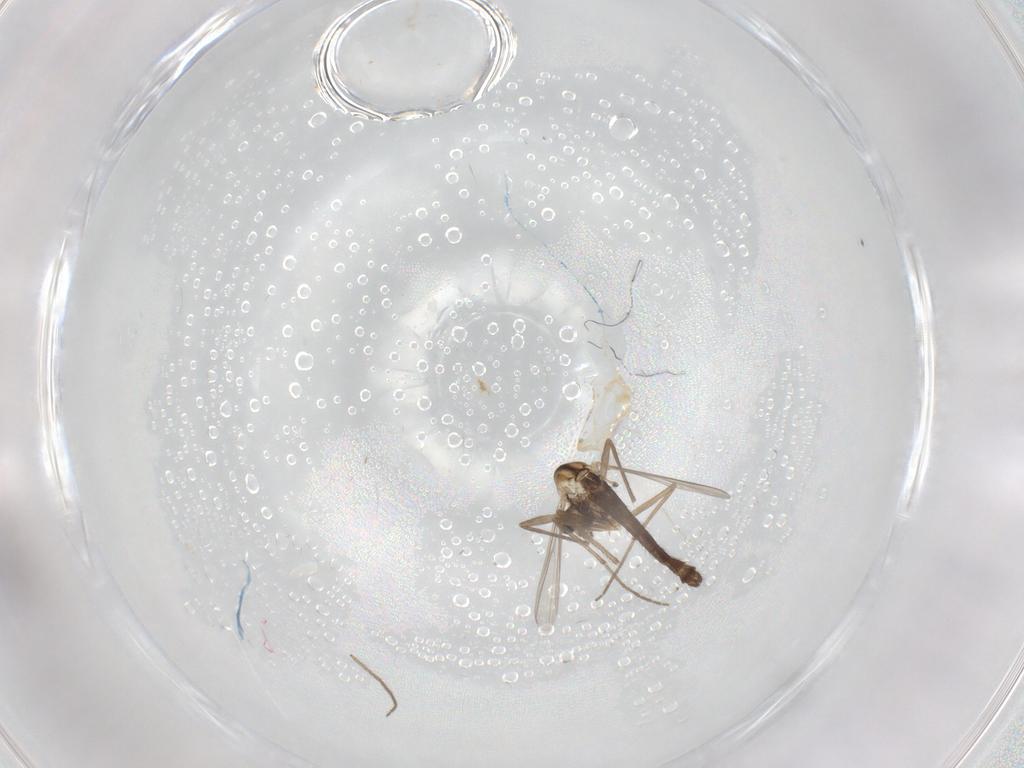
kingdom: Animalia
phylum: Arthropoda
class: Insecta
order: Diptera
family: Chironomidae
